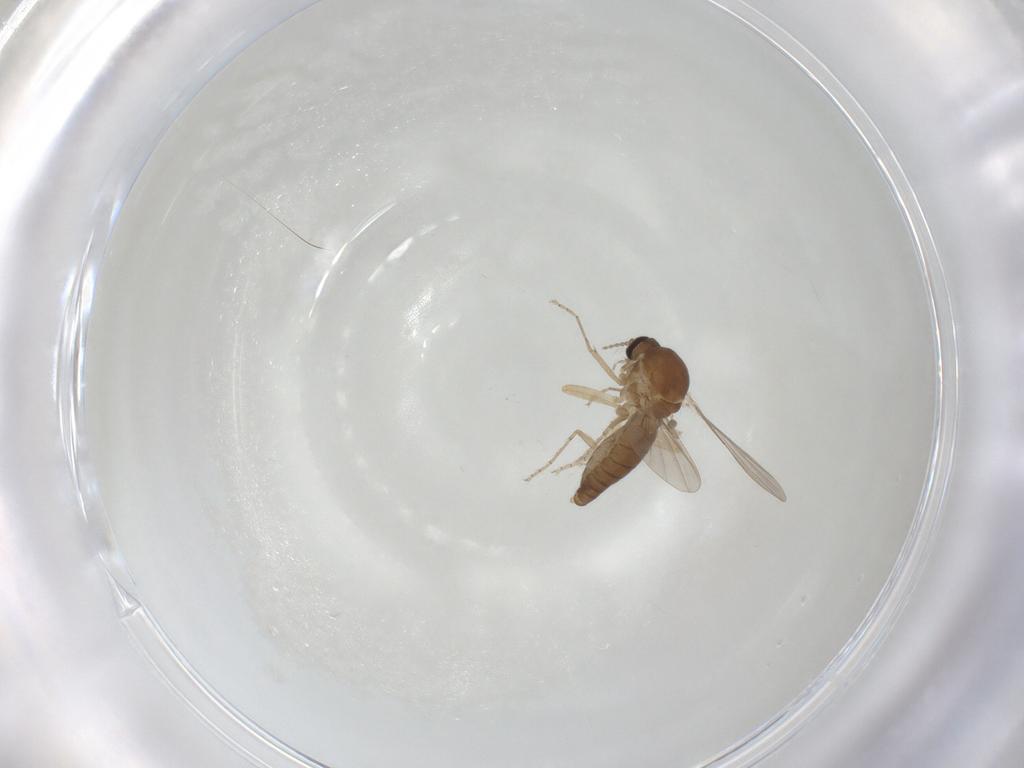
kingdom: Animalia
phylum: Arthropoda
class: Insecta
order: Diptera
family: Ceratopogonidae
